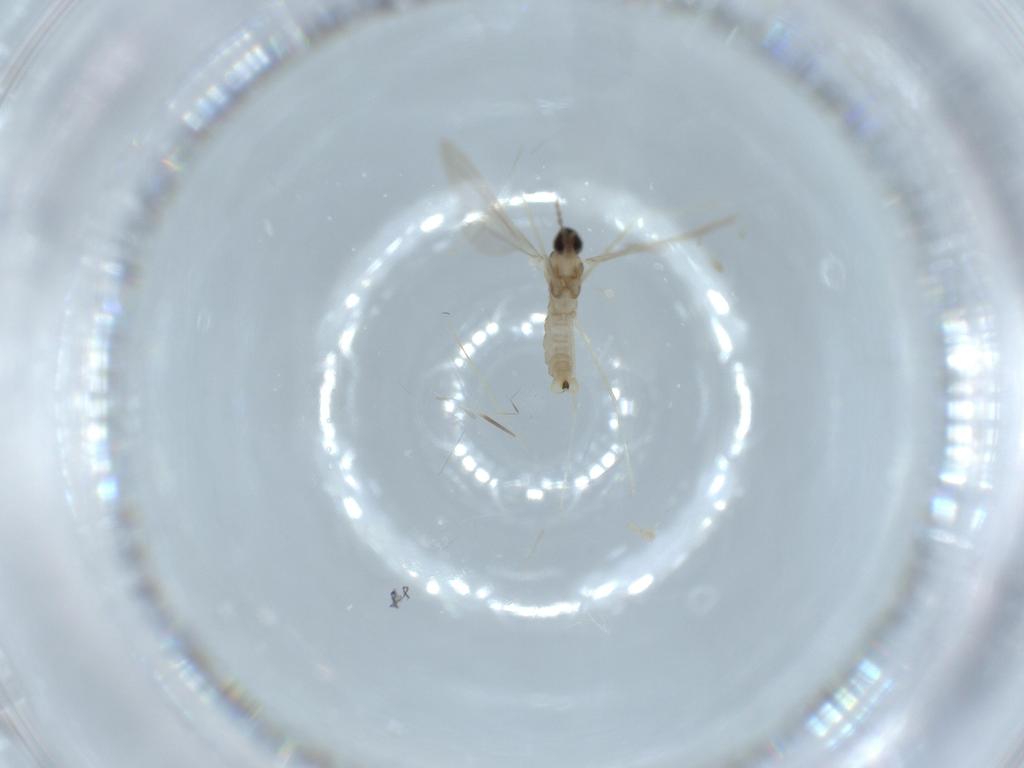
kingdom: Animalia
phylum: Arthropoda
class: Insecta
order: Diptera
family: Cecidomyiidae
